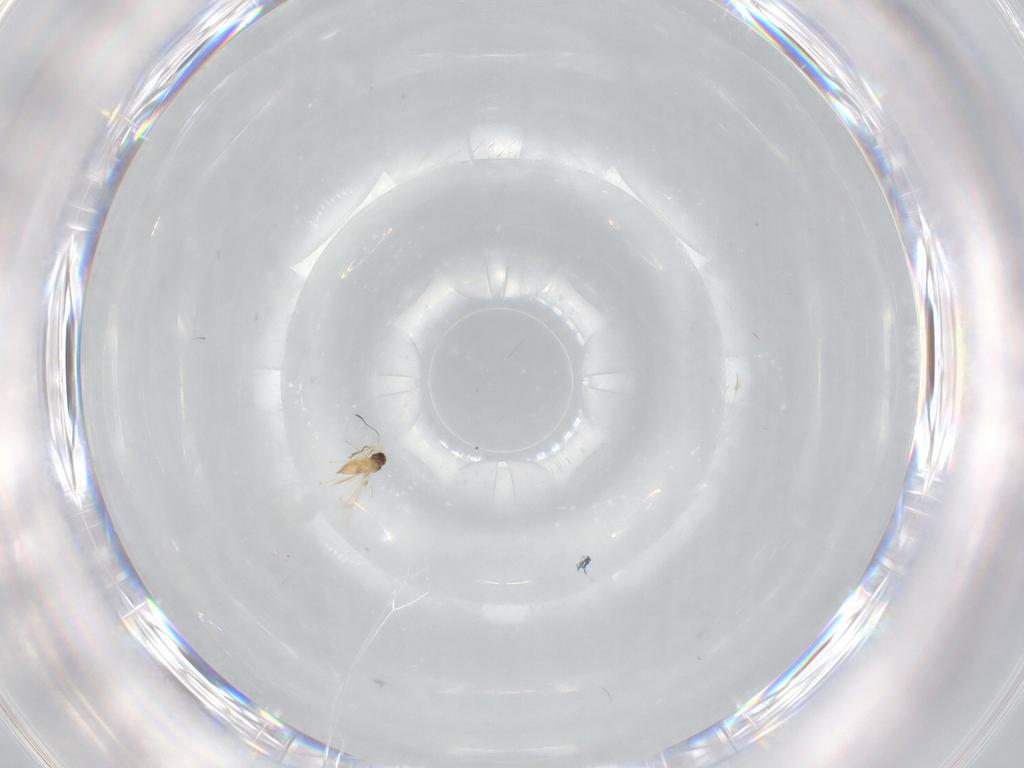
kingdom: Animalia
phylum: Arthropoda
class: Insecta
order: Hymenoptera
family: Mymaridae
